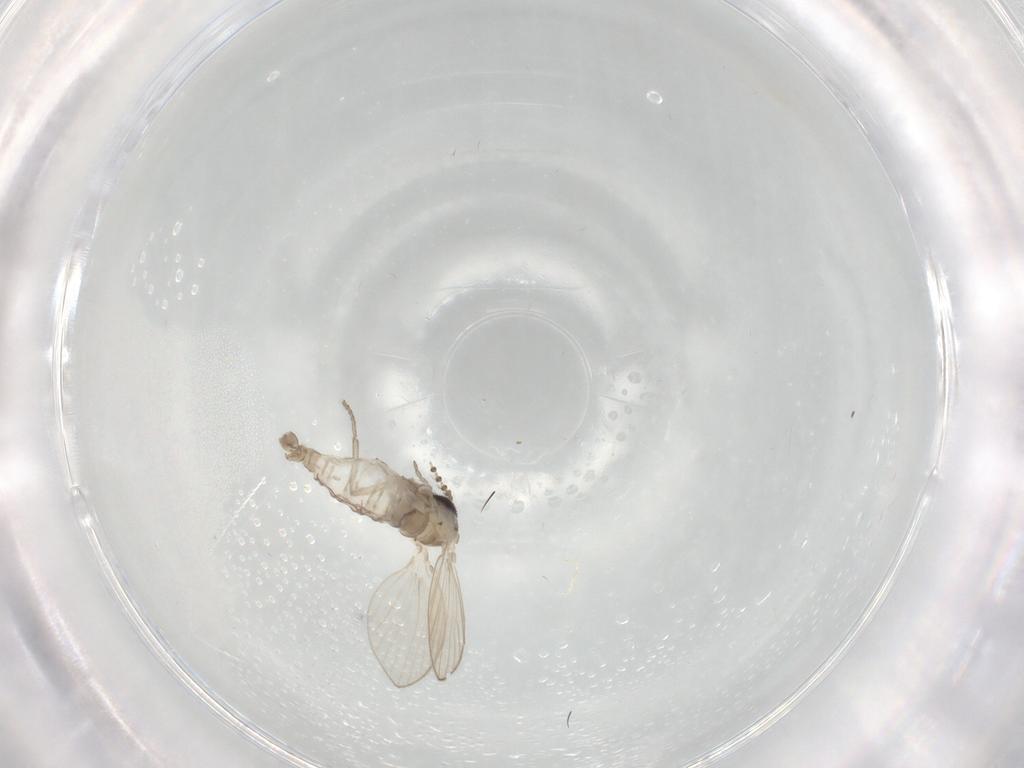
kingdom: Animalia
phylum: Arthropoda
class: Insecta
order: Diptera
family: Psychodidae
